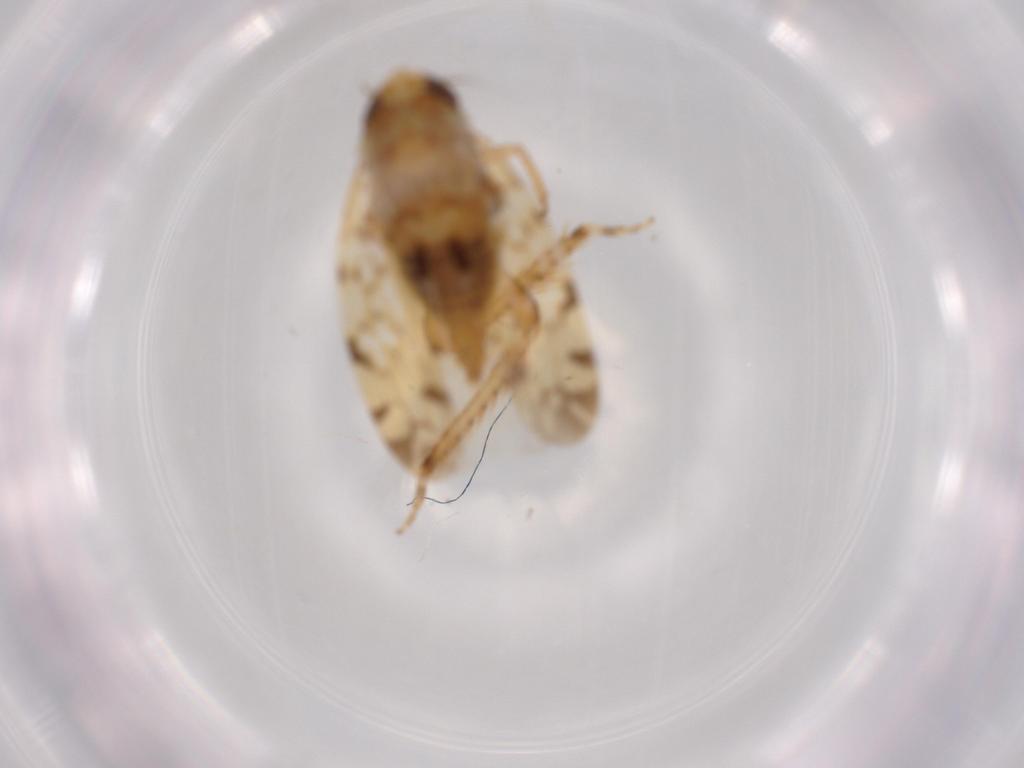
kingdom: Animalia
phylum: Arthropoda
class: Insecta
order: Hemiptera
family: Cicadellidae
